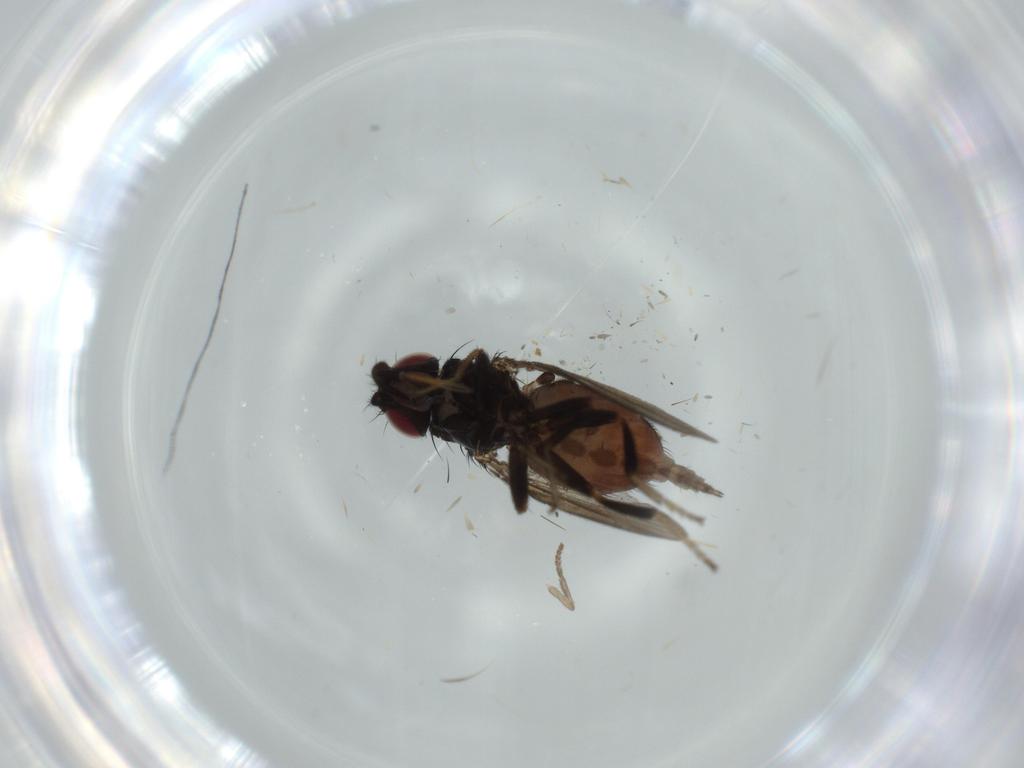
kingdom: Animalia
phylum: Arthropoda
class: Insecta
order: Diptera
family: Milichiidae
